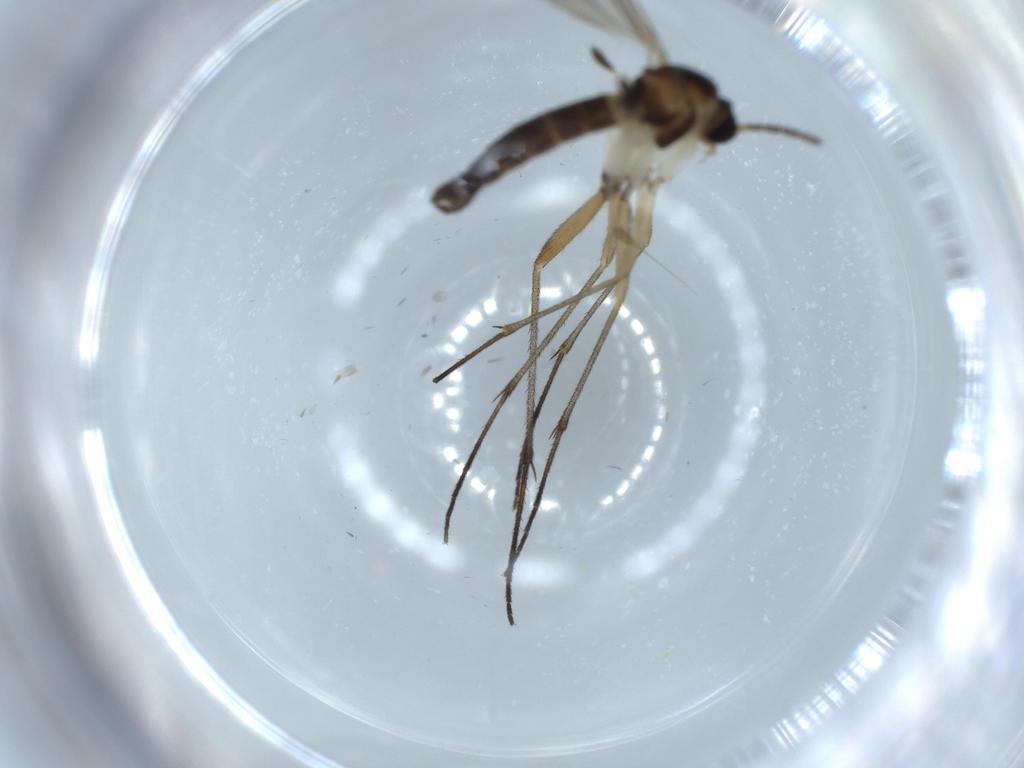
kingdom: Animalia
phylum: Arthropoda
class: Insecta
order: Diptera
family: Sciaridae
